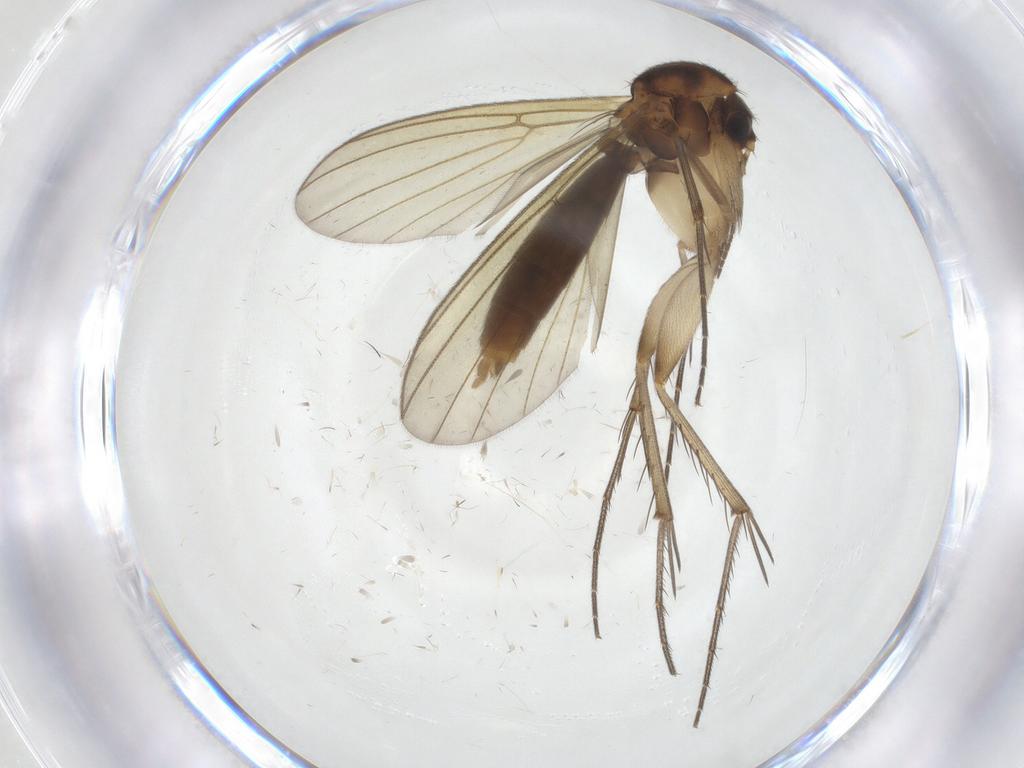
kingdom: Animalia
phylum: Arthropoda
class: Insecta
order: Diptera
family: Mycetophilidae
